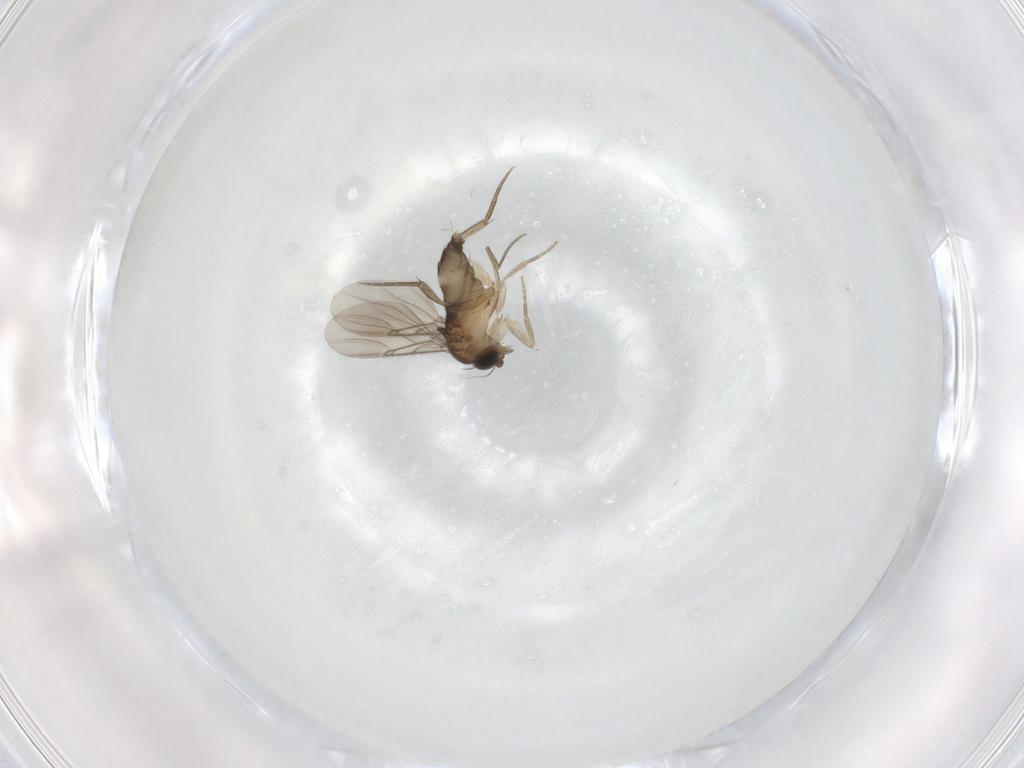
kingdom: Animalia
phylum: Arthropoda
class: Insecta
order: Diptera
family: Phoridae
